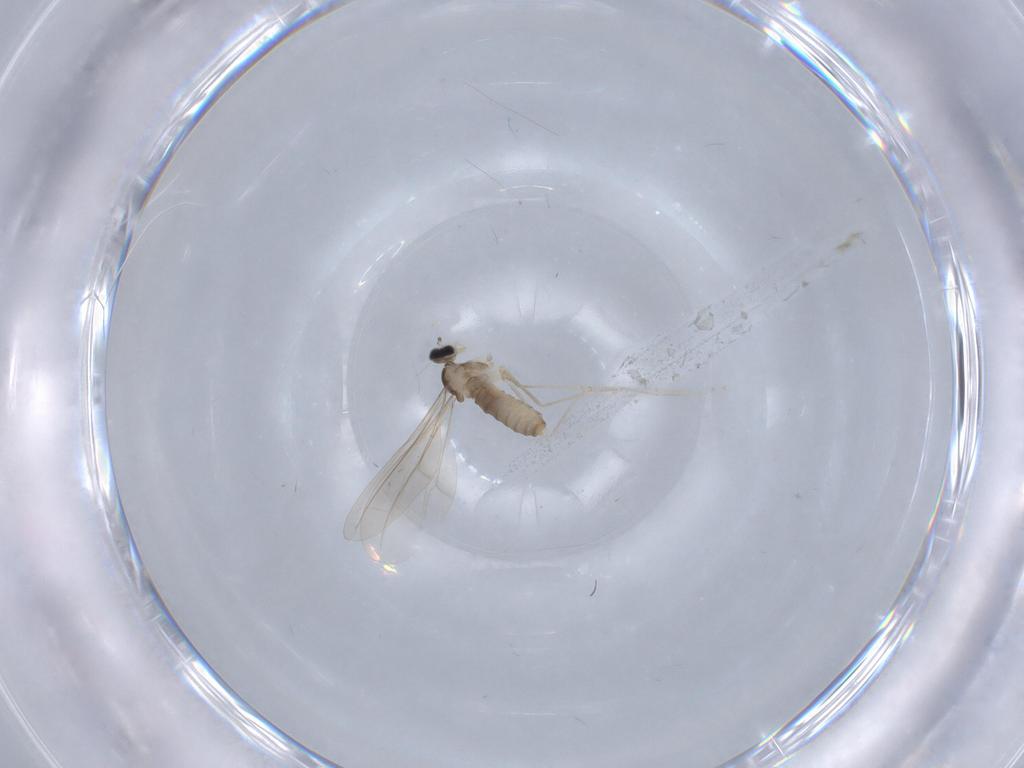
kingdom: Animalia
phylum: Arthropoda
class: Insecta
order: Diptera
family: Cecidomyiidae
